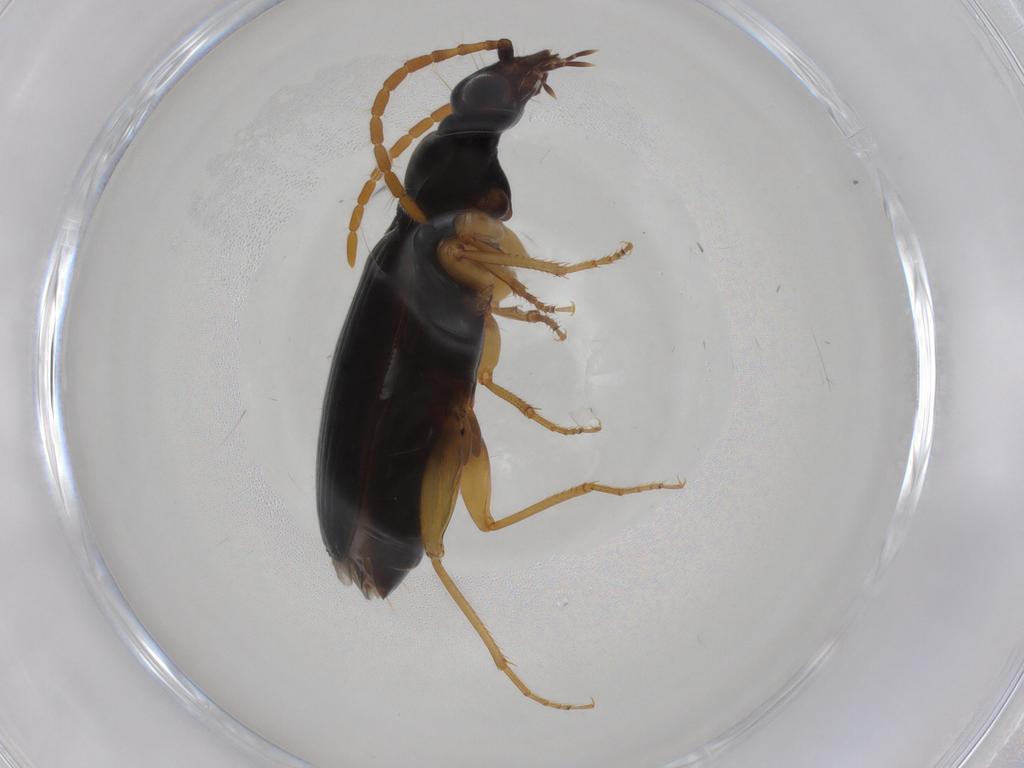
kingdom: Animalia
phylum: Arthropoda
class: Insecta
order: Coleoptera
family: Carabidae
